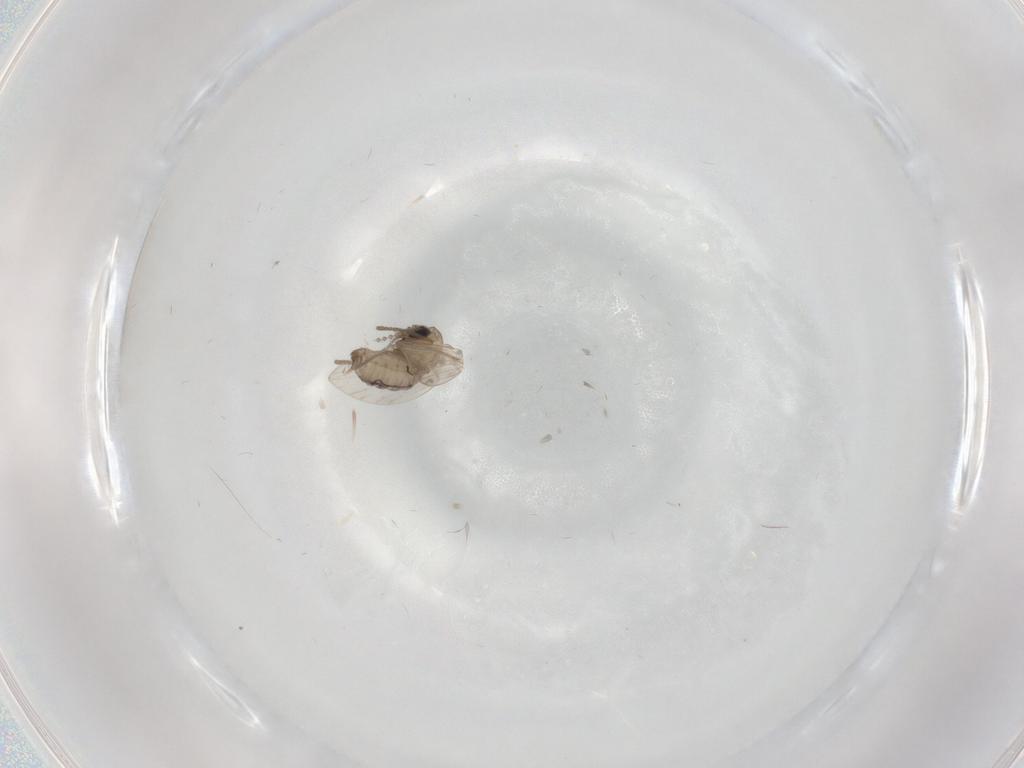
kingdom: Animalia
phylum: Arthropoda
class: Insecta
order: Diptera
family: Psychodidae
